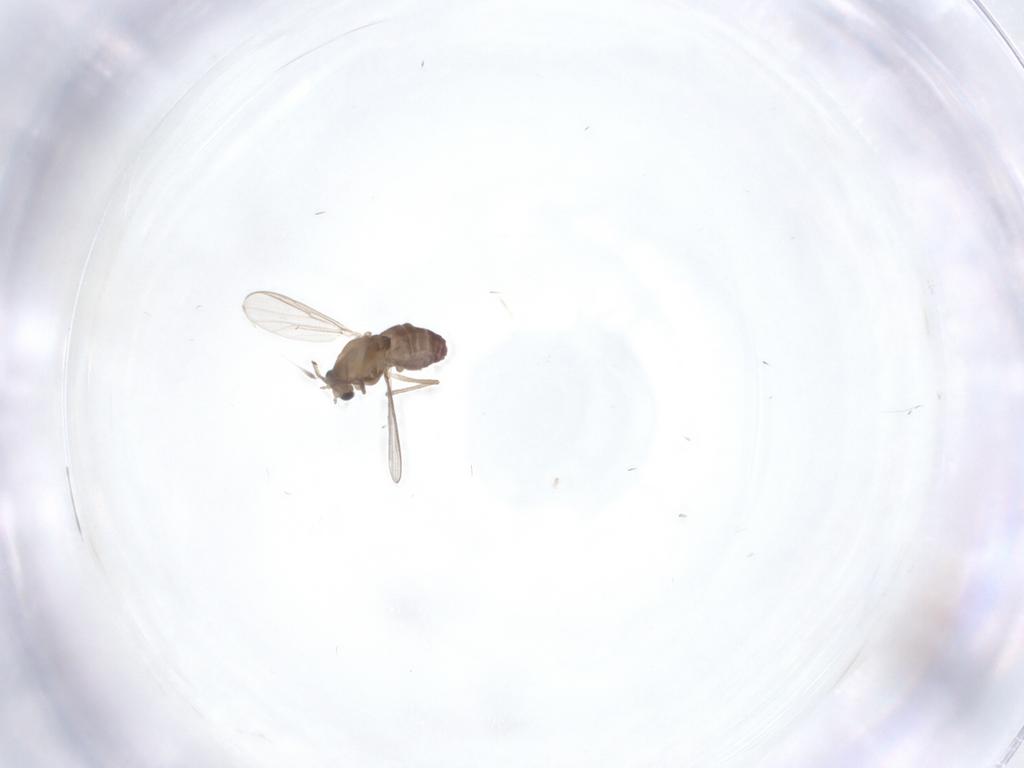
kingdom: Animalia
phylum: Arthropoda
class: Insecta
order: Diptera
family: Chironomidae
